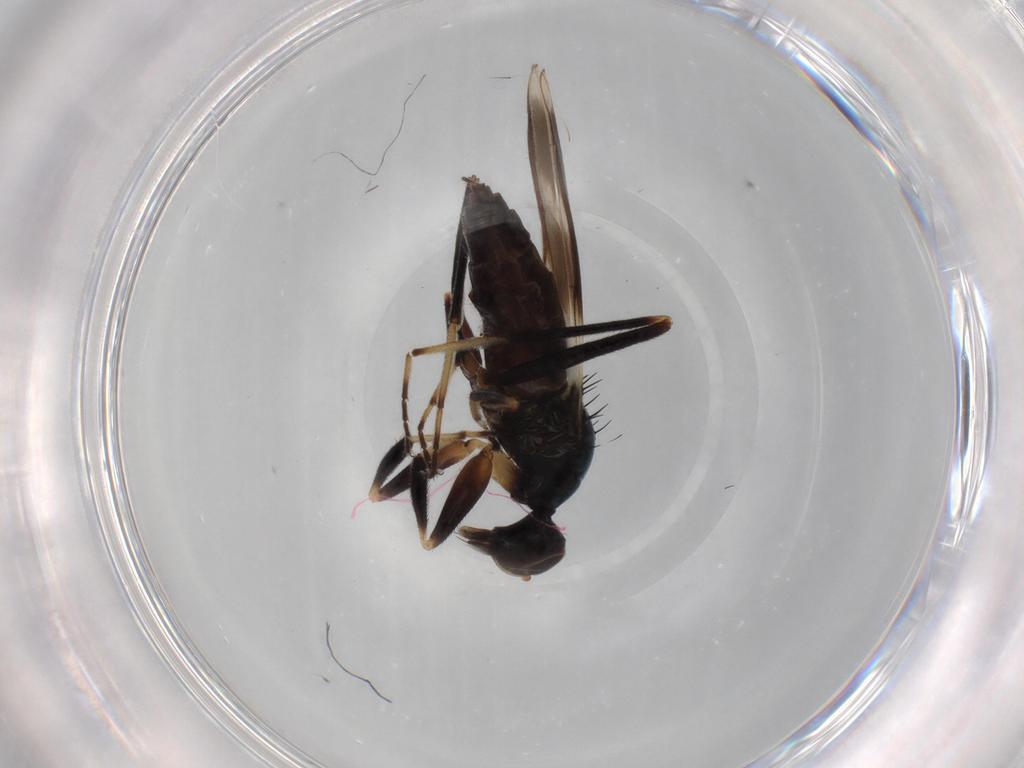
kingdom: Animalia
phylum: Arthropoda
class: Insecta
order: Diptera
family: Hybotidae
